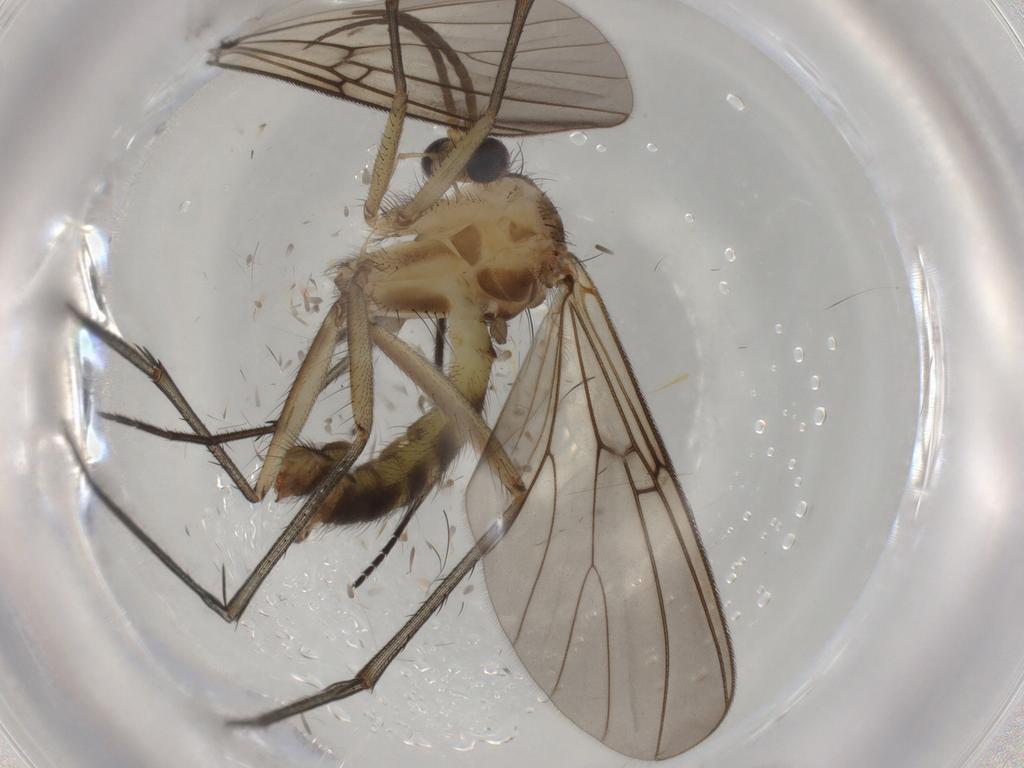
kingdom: Animalia
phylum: Arthropoda
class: Insecta
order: Diptera
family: Mycetophilidae
